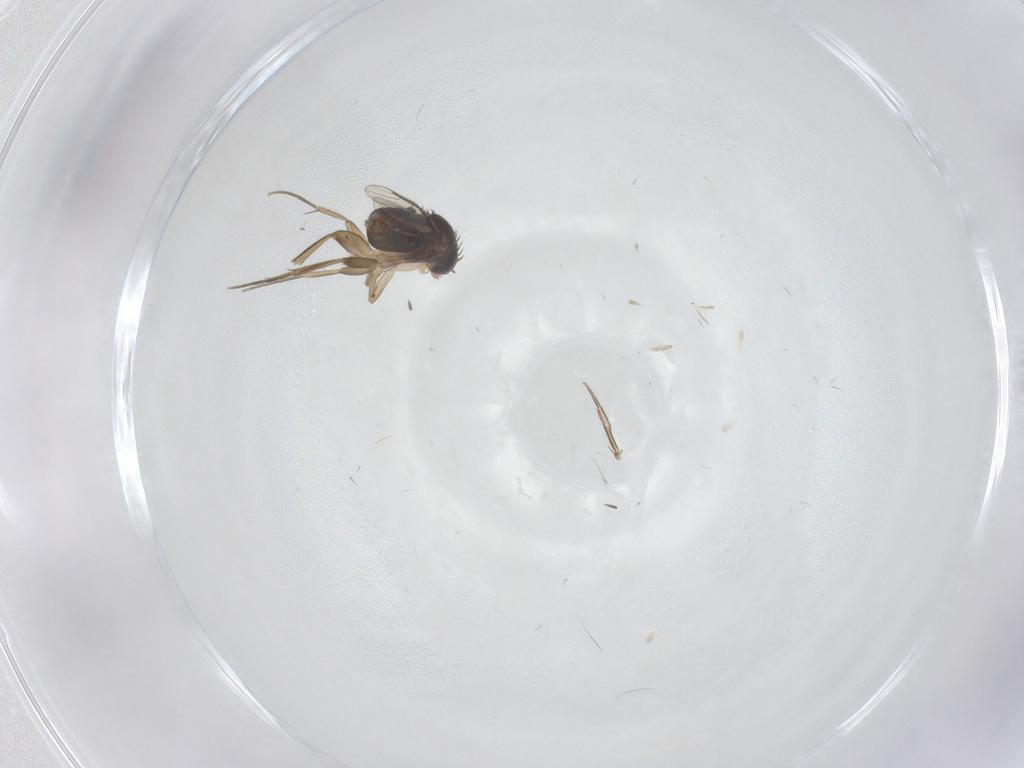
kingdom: Animalia
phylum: Arthropoda
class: Insecta
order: Diptera
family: Phoridae
